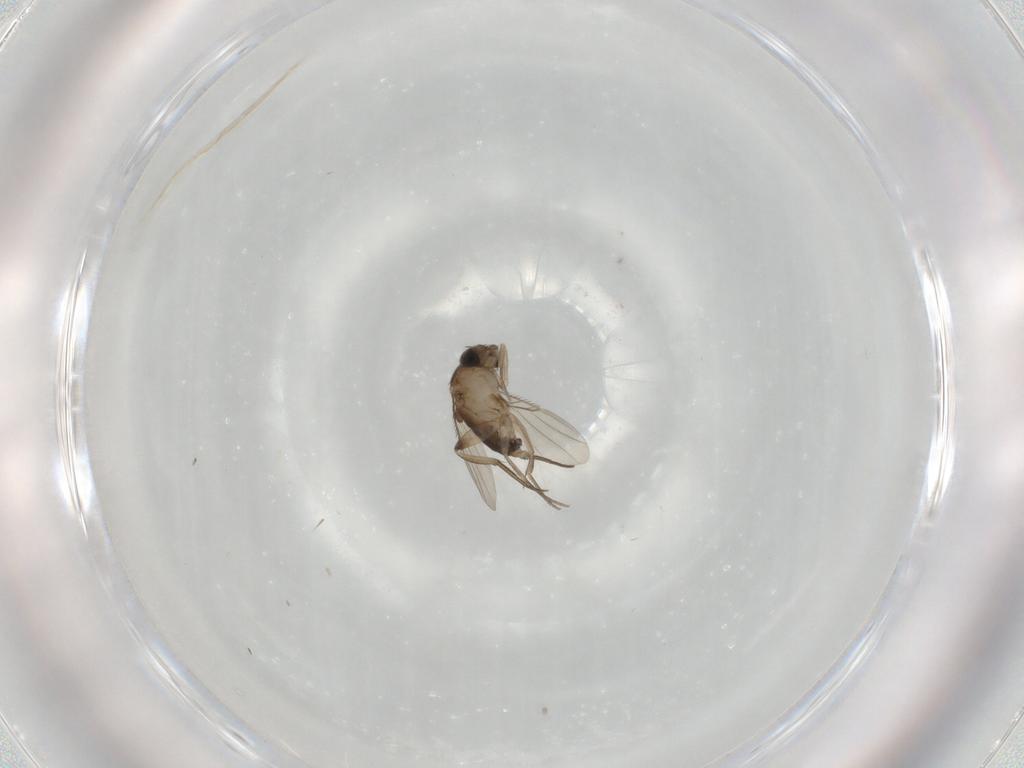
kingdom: Animalia
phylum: Arthropoda
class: Insecta
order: Diptera
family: Phoridae
